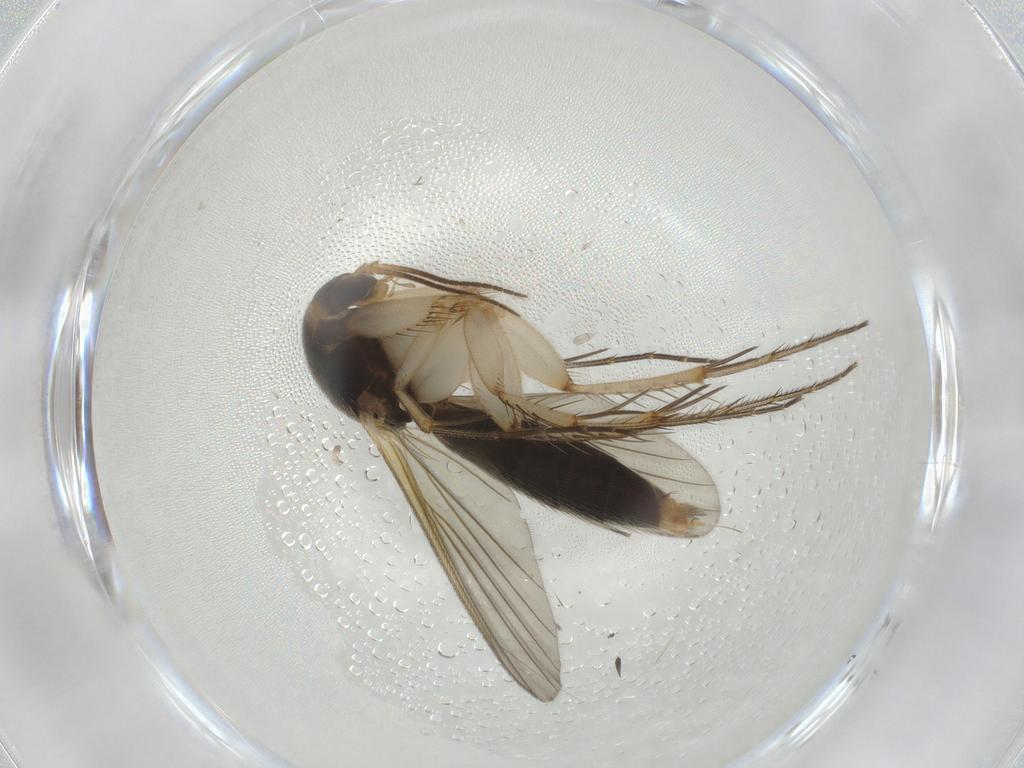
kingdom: Animalia
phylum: Arthropoda
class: Insecta
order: Diptera
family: Mycetophilidae
